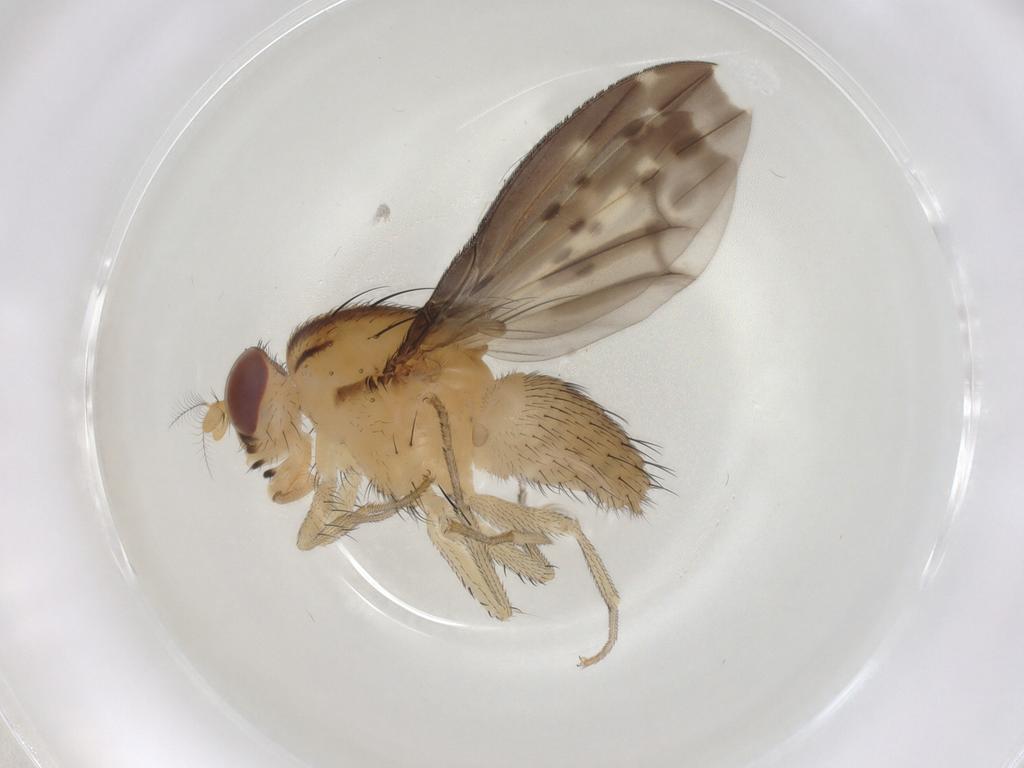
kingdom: Animalia
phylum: Arthropoda
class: Insecta
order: Diptera
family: Lauxaniidae
